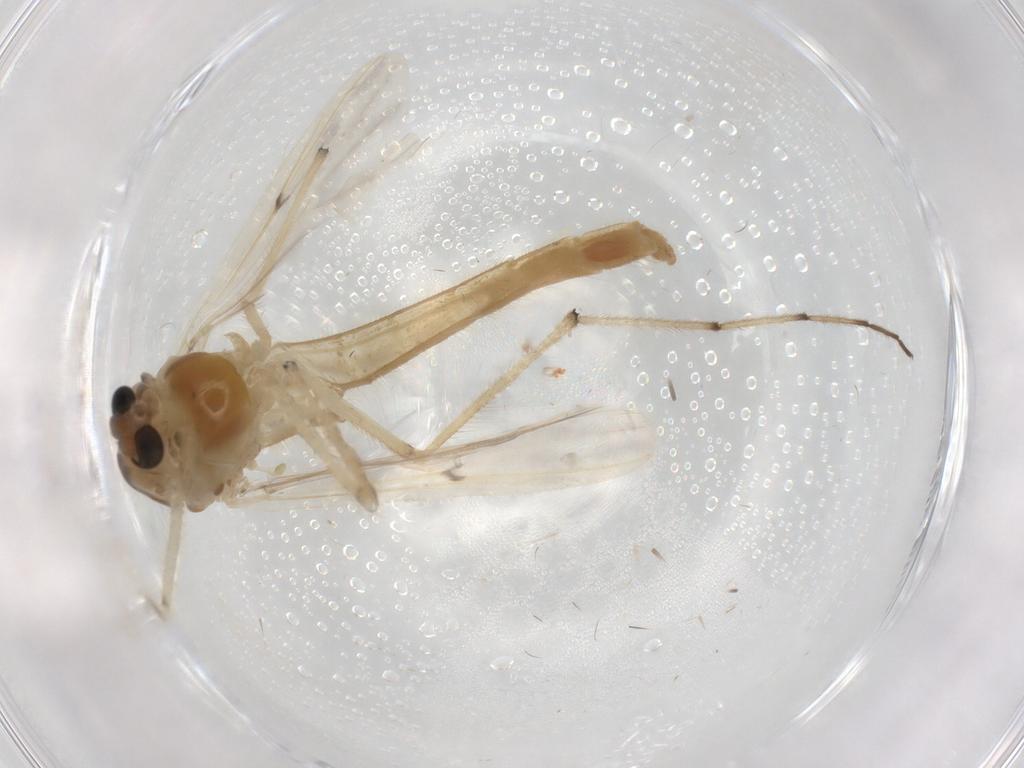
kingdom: Animalia
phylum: Arthropoda
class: Insecta
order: Diptera
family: Chironomidae
